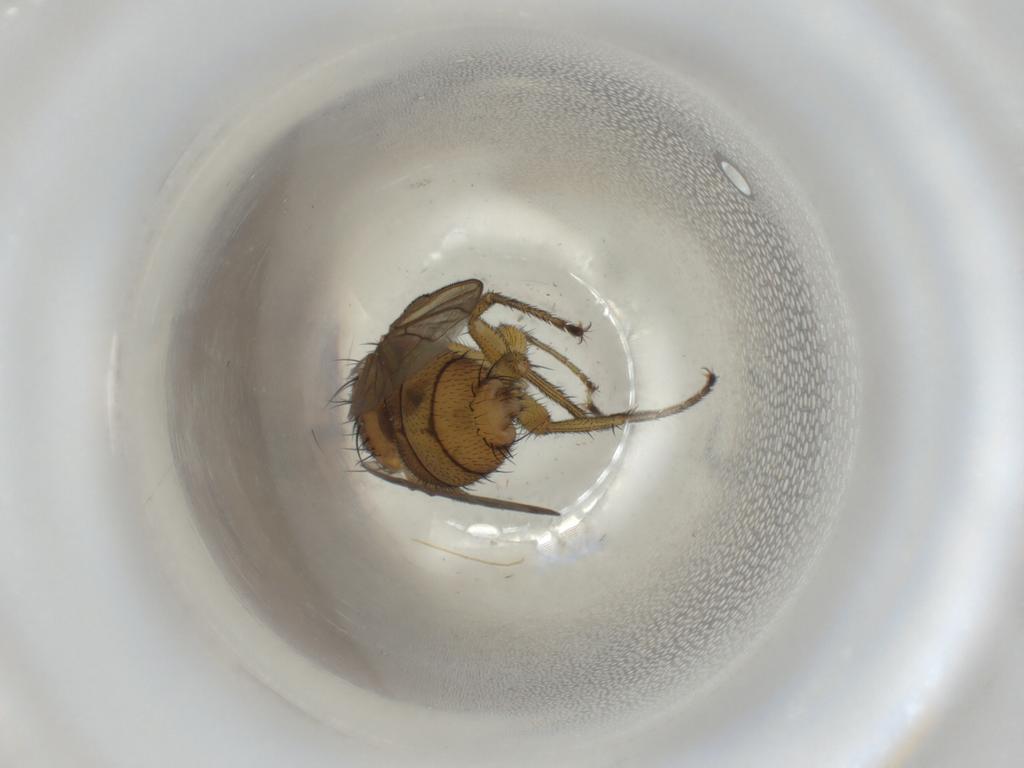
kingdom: Animalia
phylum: Arthropoda
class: Insecta
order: Diptera
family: Calliphoridae
